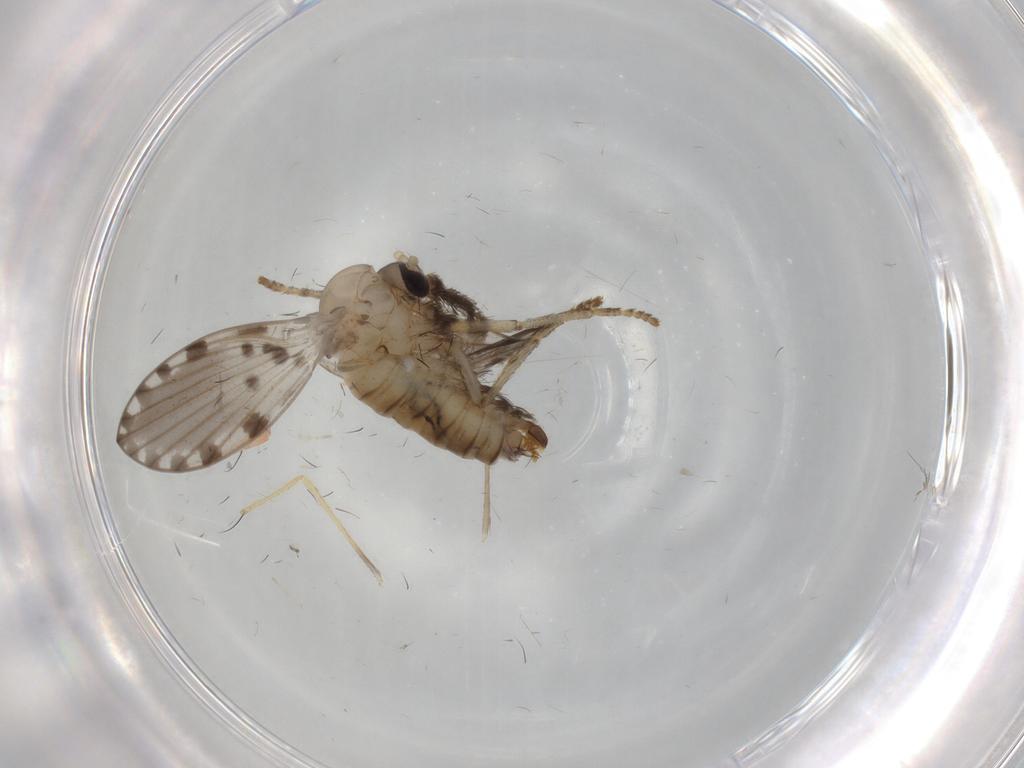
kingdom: Animalia
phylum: Arthropoda
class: Insecta
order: Diptera
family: Psychodidae
